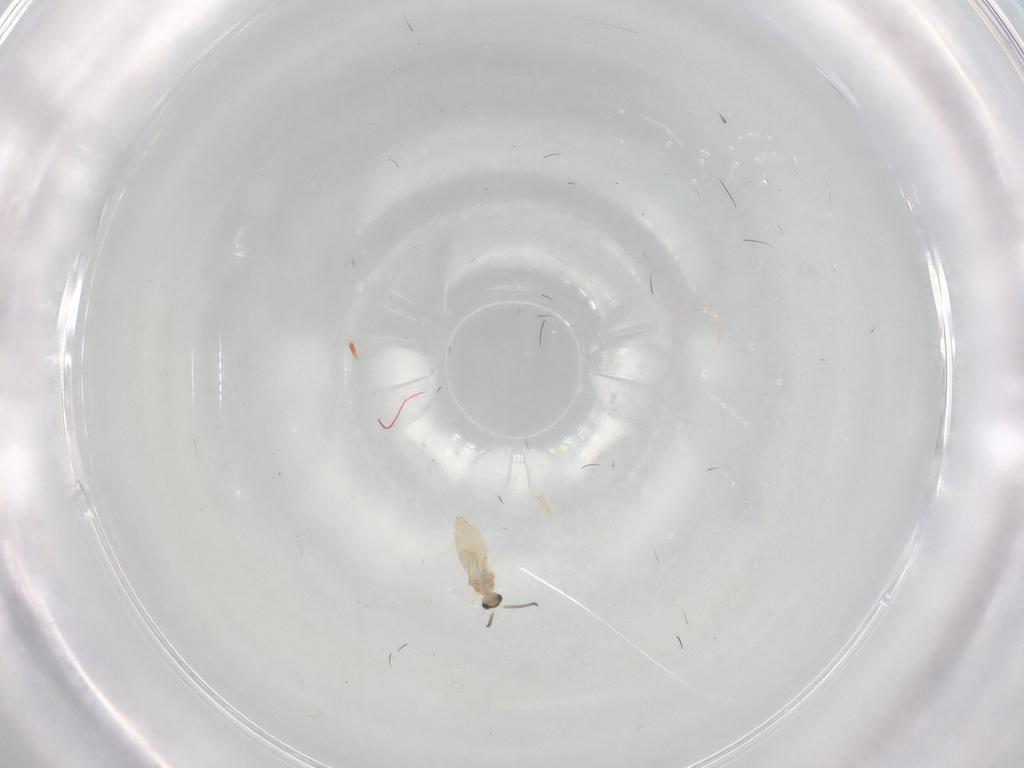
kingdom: Animalia
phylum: Arthropoda
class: Insecta
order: Diptera
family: Cecidomyiidae
